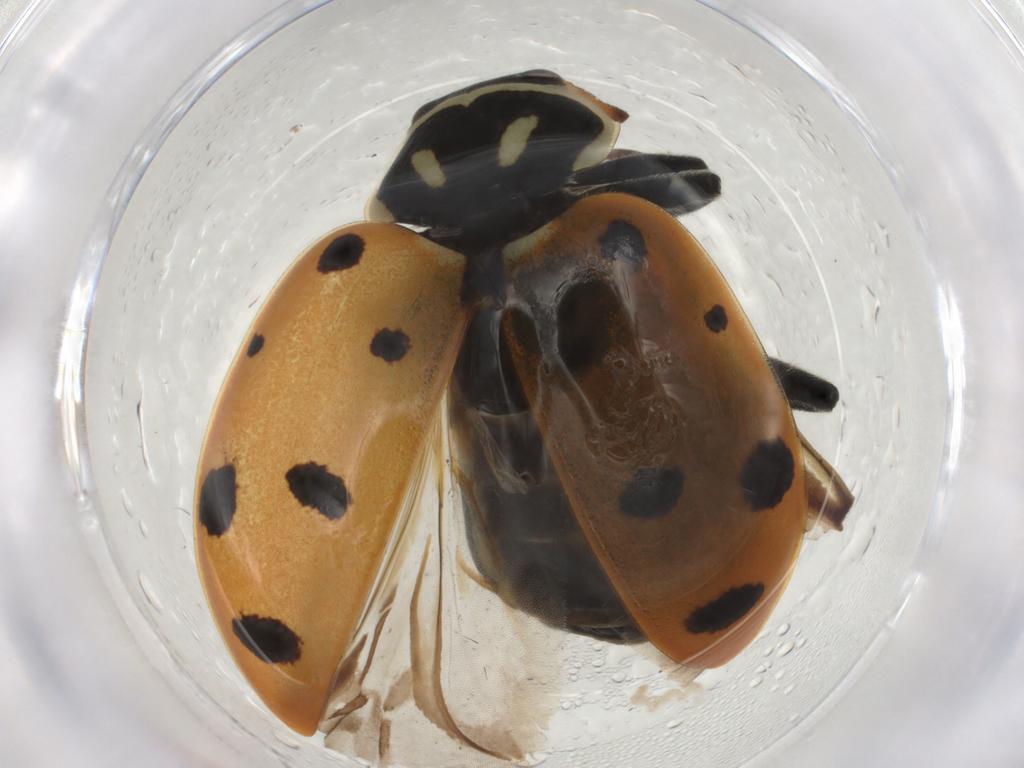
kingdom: Animalia
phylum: Arthropoda
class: Insecta
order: Coleoptera
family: Coccinellidae
